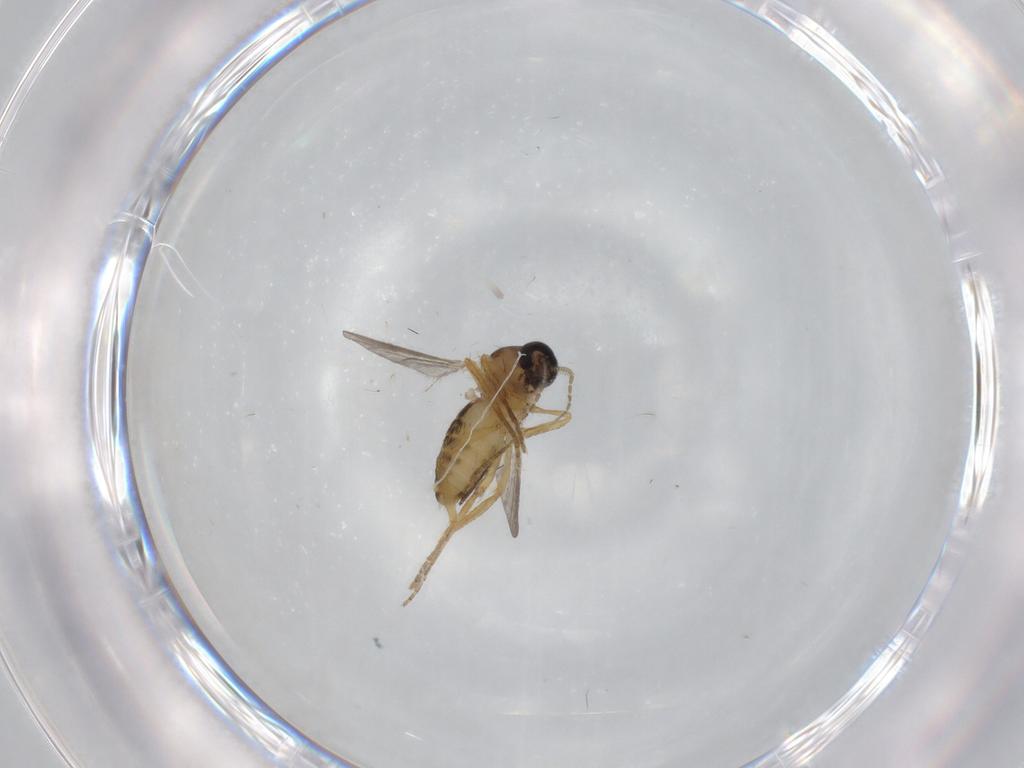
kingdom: Animalia
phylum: Arthropoda
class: Insecta
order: Diptera
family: Ceratopogonidae
